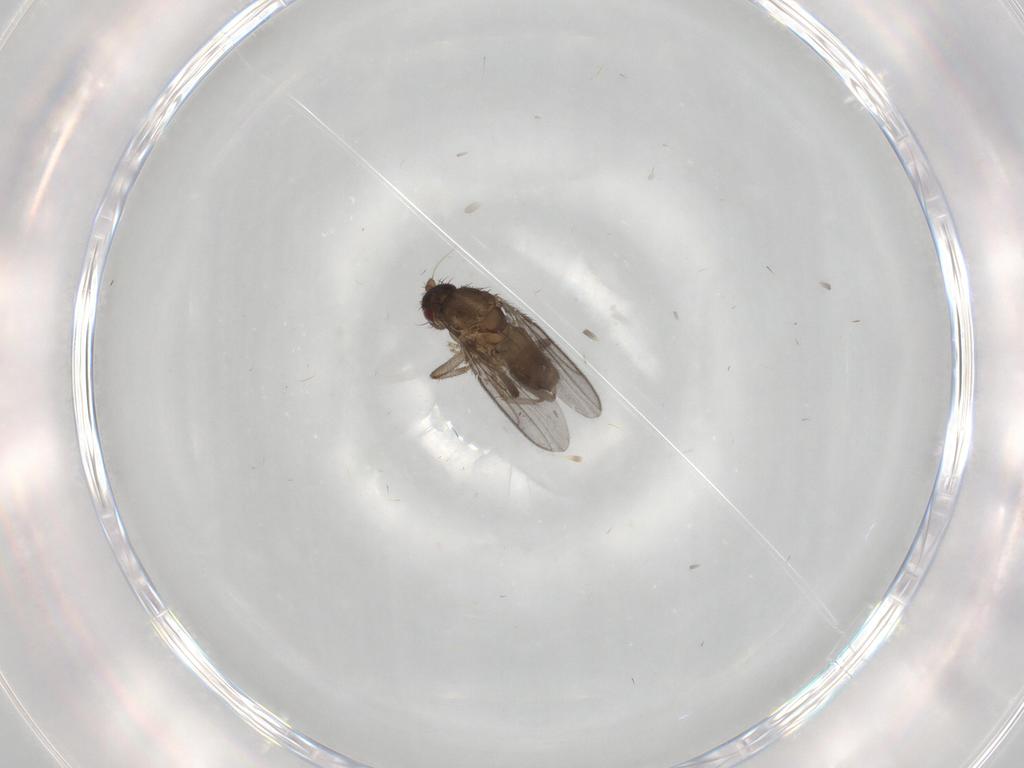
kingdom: Animalia
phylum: Arthropoda
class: Insecta
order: Diptera
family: Sphaeroceridae
